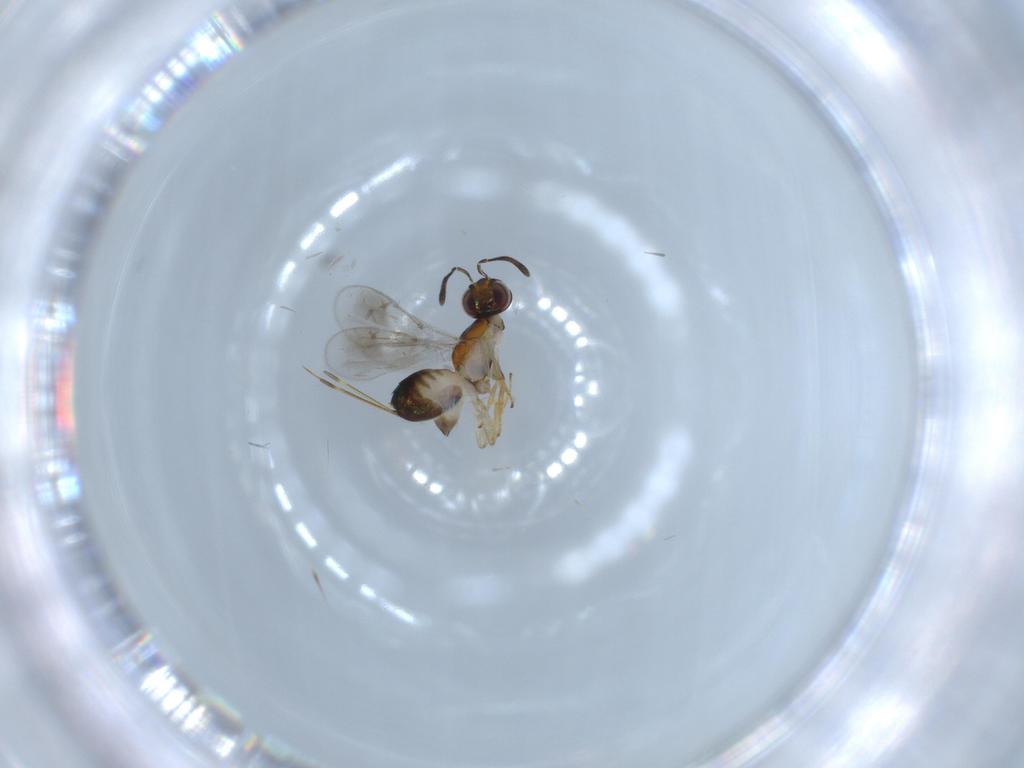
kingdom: Animalia
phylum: Arthropoda
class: Insecta
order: Hymenoptera
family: Pteromalidae
